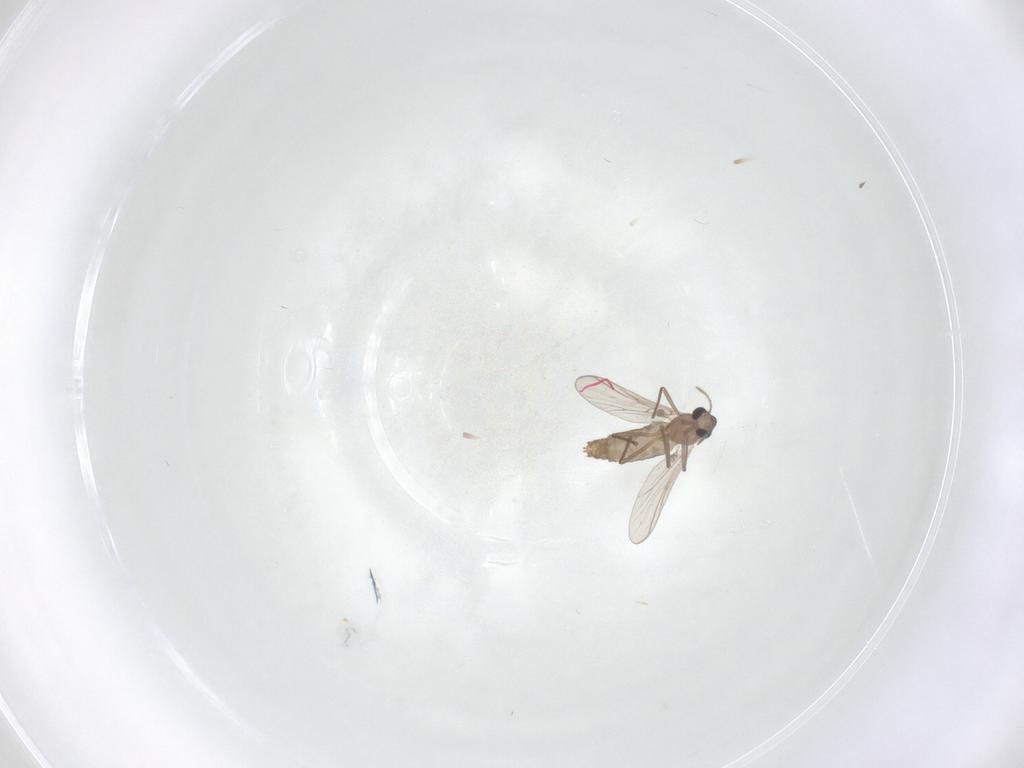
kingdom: Animalia
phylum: Arthropoda
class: Insecta
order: Diptera
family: Chironomidae
